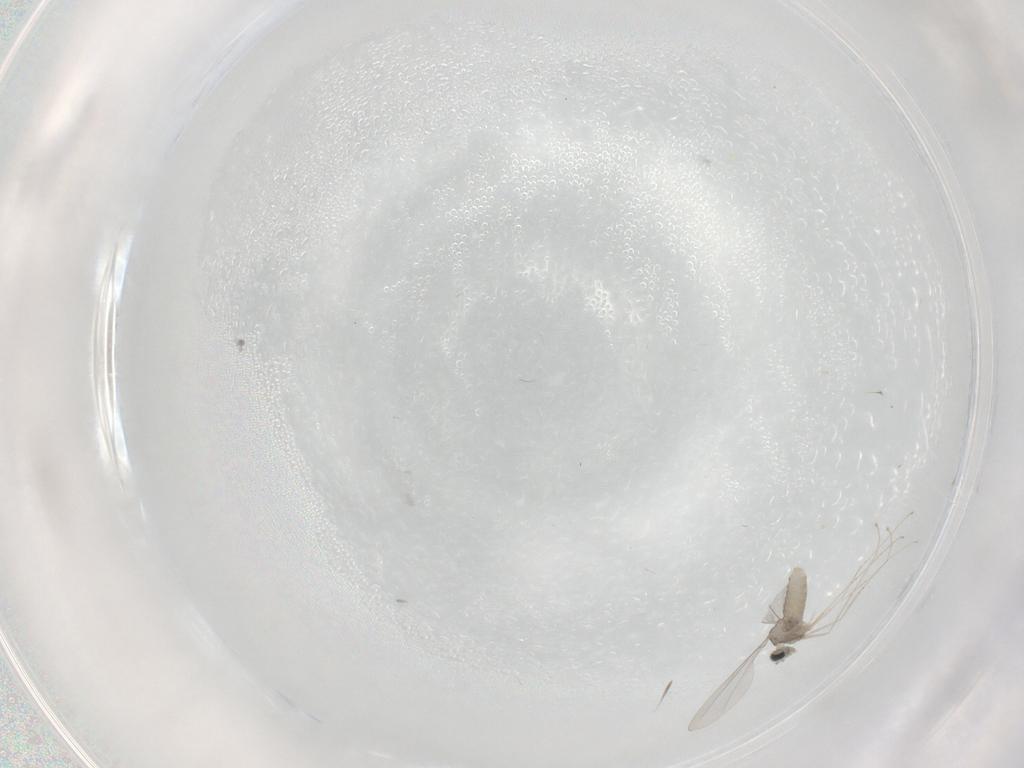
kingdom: Animalia
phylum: Arthropoda
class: Insecta
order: Diptera
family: Ceratopogonidae
